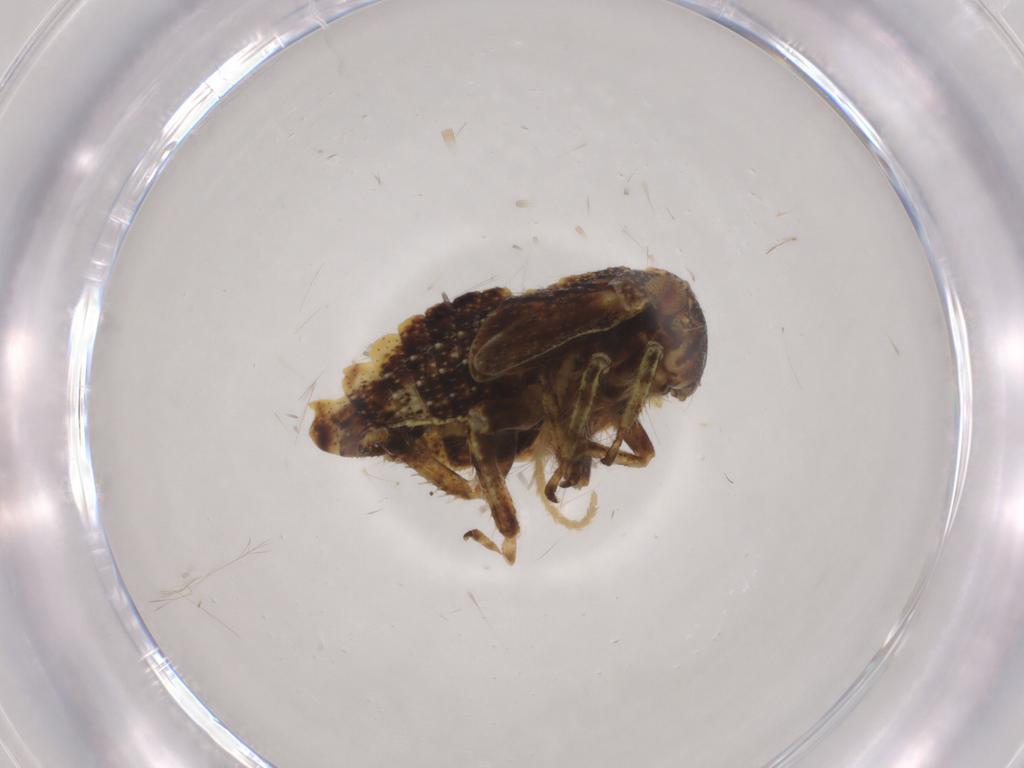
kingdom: Animalia
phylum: Arthropoda
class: Insecta
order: Hemiptera
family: Cicadellidae
